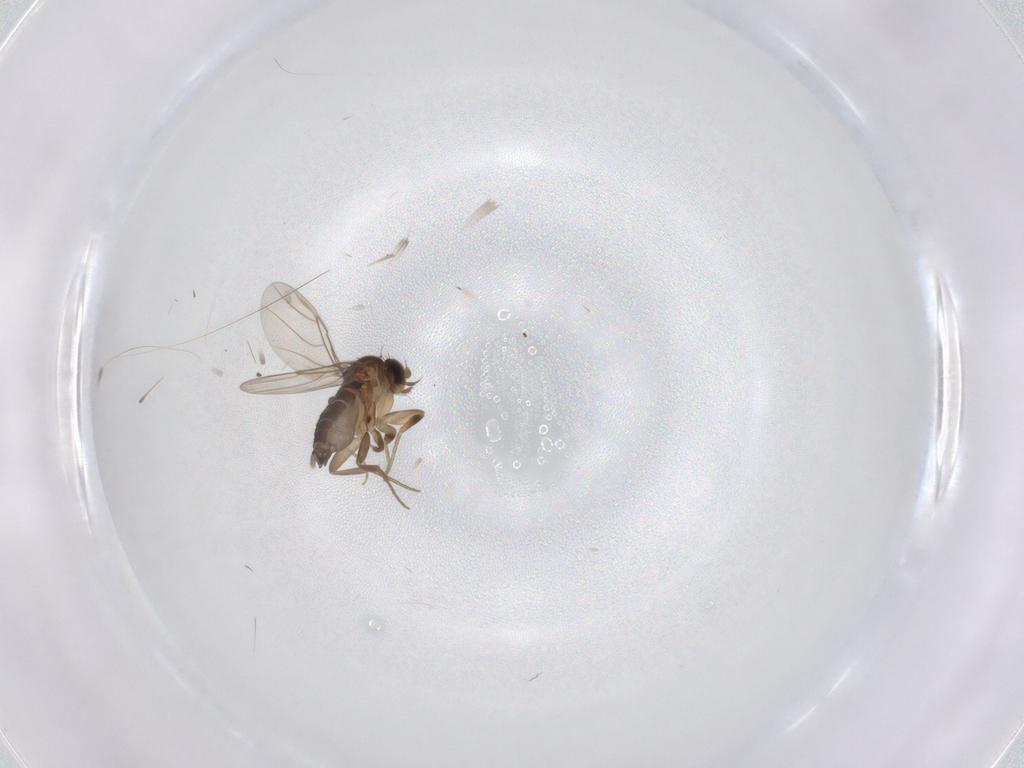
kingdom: Animalia
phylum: Arthropoda
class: Insecta
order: Diptera
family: Phoridae
